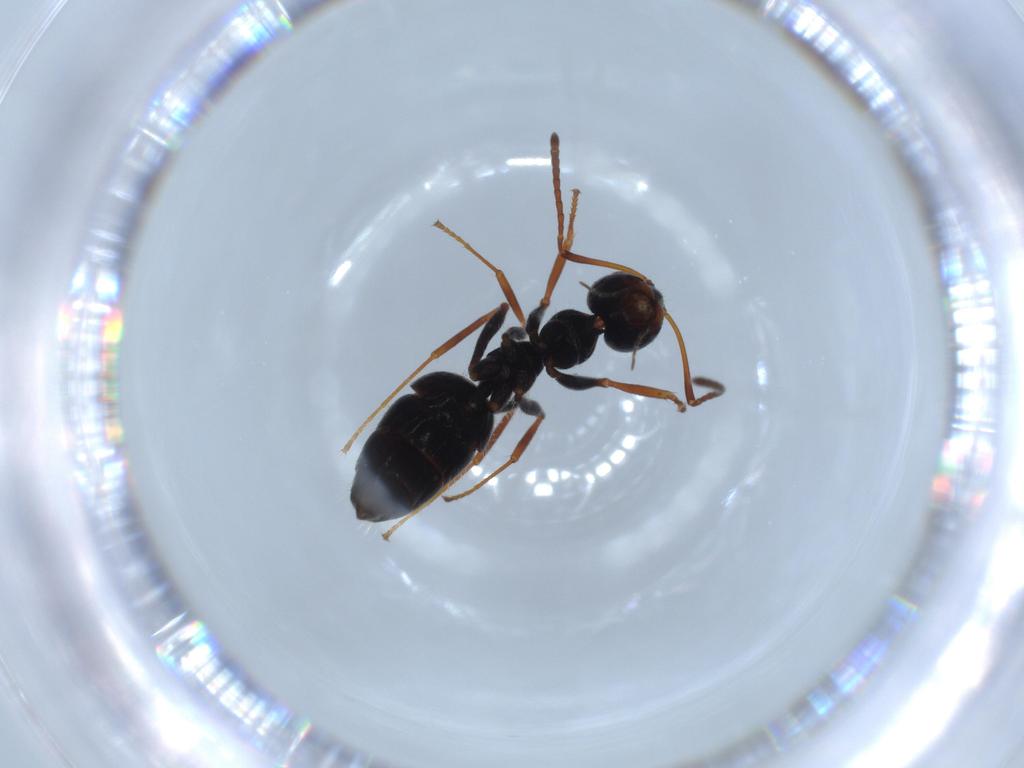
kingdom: Animalia
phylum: Arthropoda
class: Insecta
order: Hymenoptera
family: Formicidae
